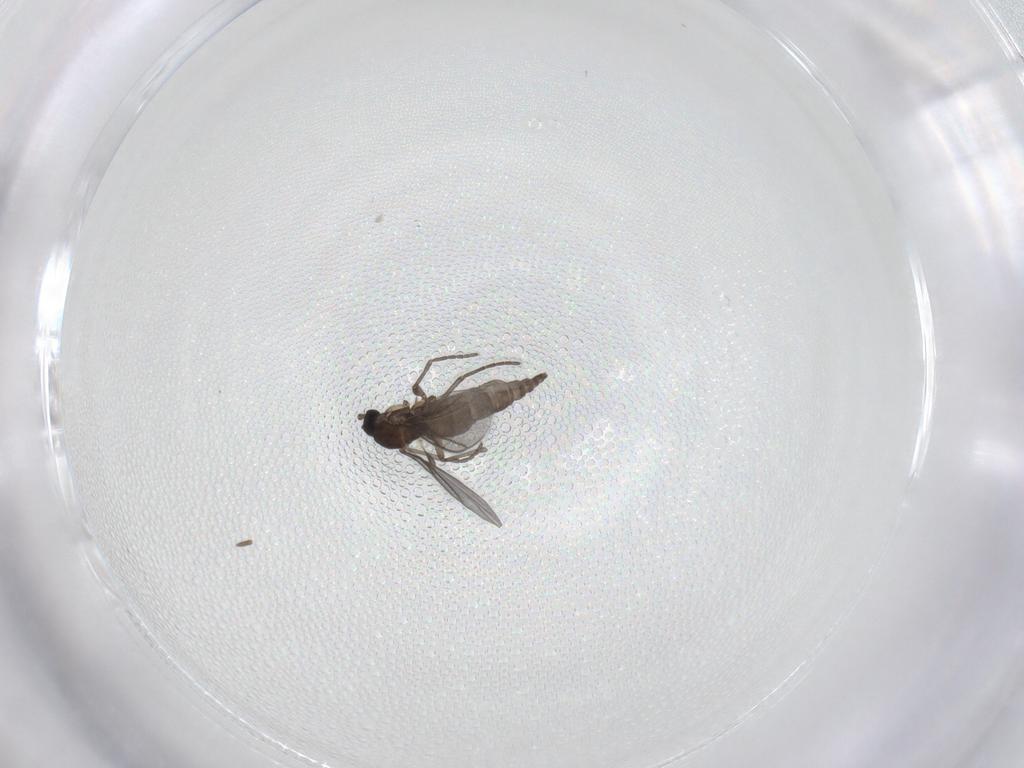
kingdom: Animalia
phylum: Arthropoda
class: Insecta
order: Diptera
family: Sciaridae
